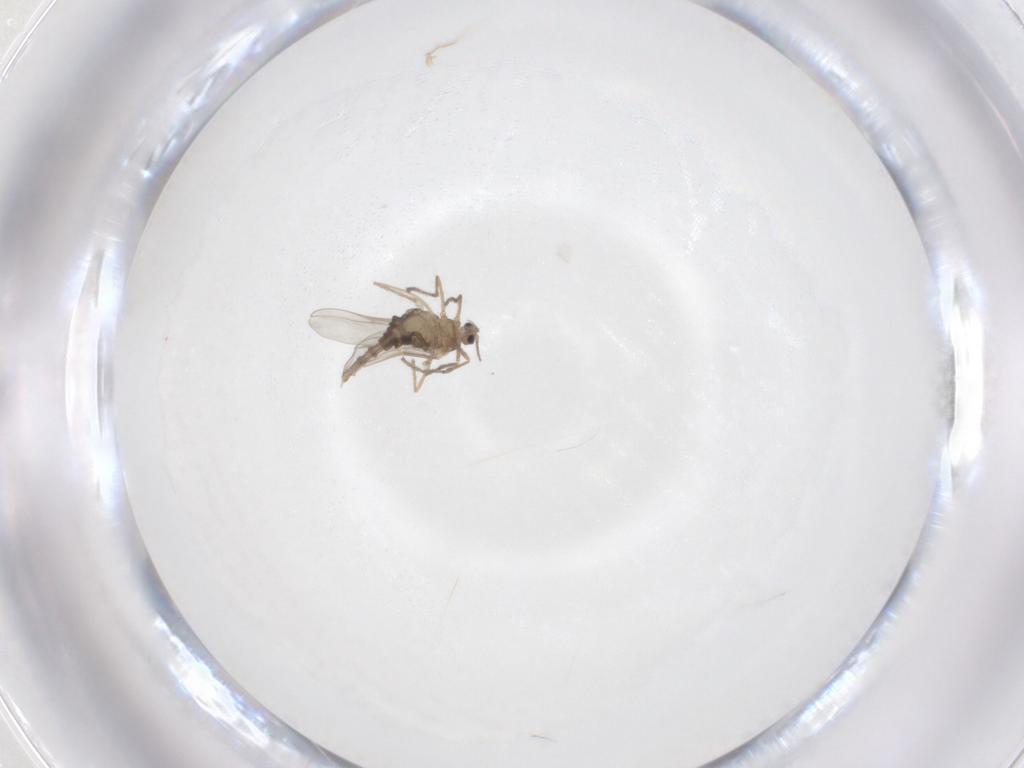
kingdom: Animalia
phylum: Arthropoda
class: Insecta
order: Diptera
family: Cecidomyiidae
